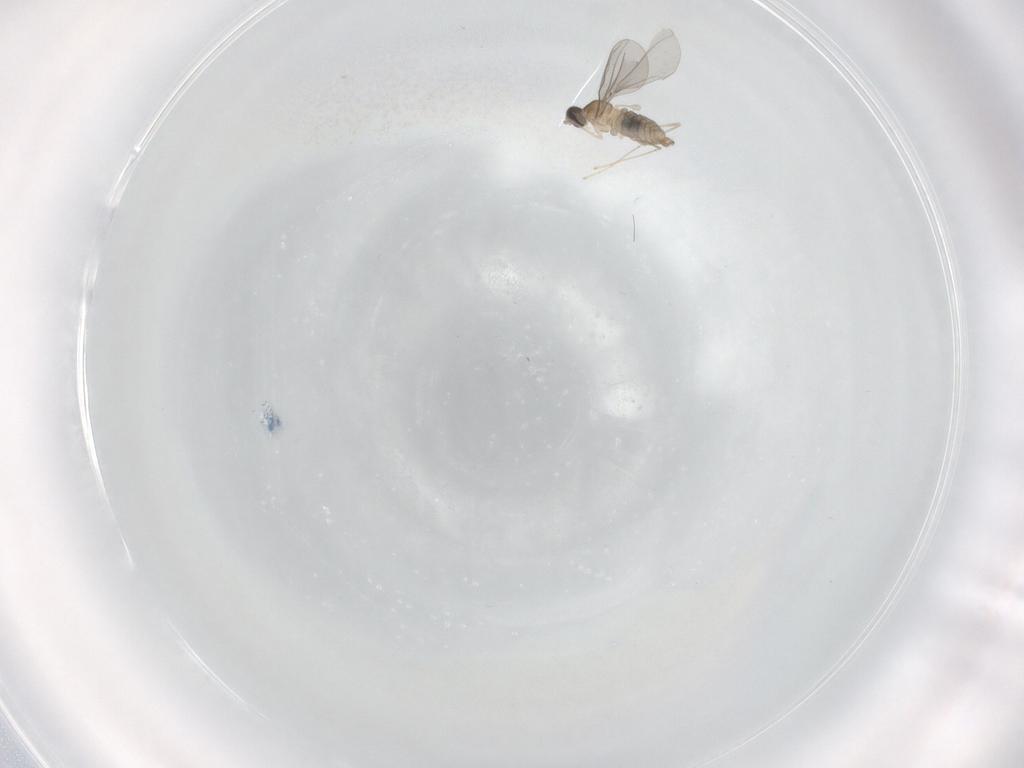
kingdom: Animalia
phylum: Arthropoda
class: Insecta
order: Diptera
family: Cecidomyiidae
